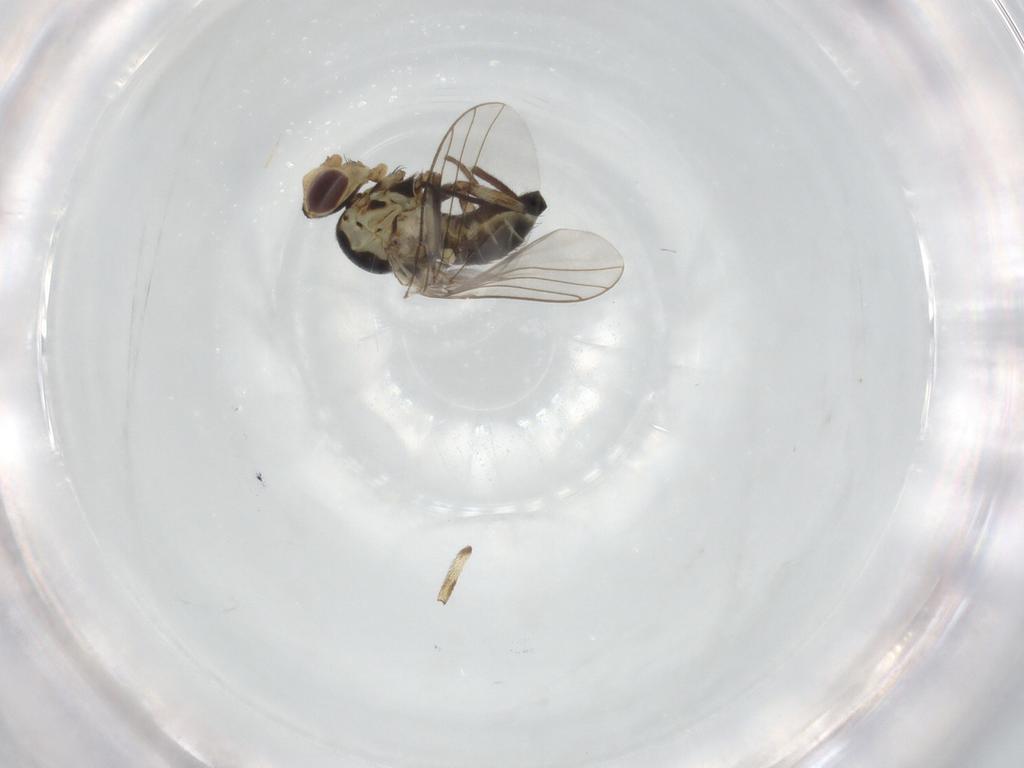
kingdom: Animalia
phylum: Arthropoda
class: Insecta
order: Diptera
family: Agromyzidae
